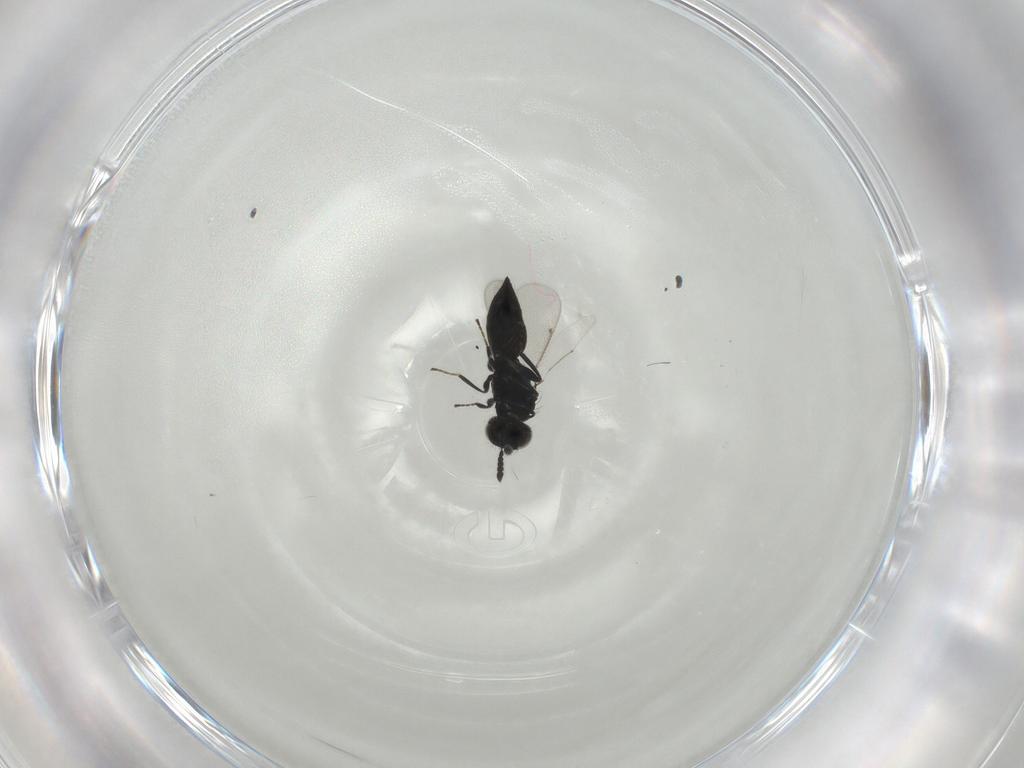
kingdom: Animalia
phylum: Arthropoda
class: Insecta
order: Hymenoptera
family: Eulophidae
